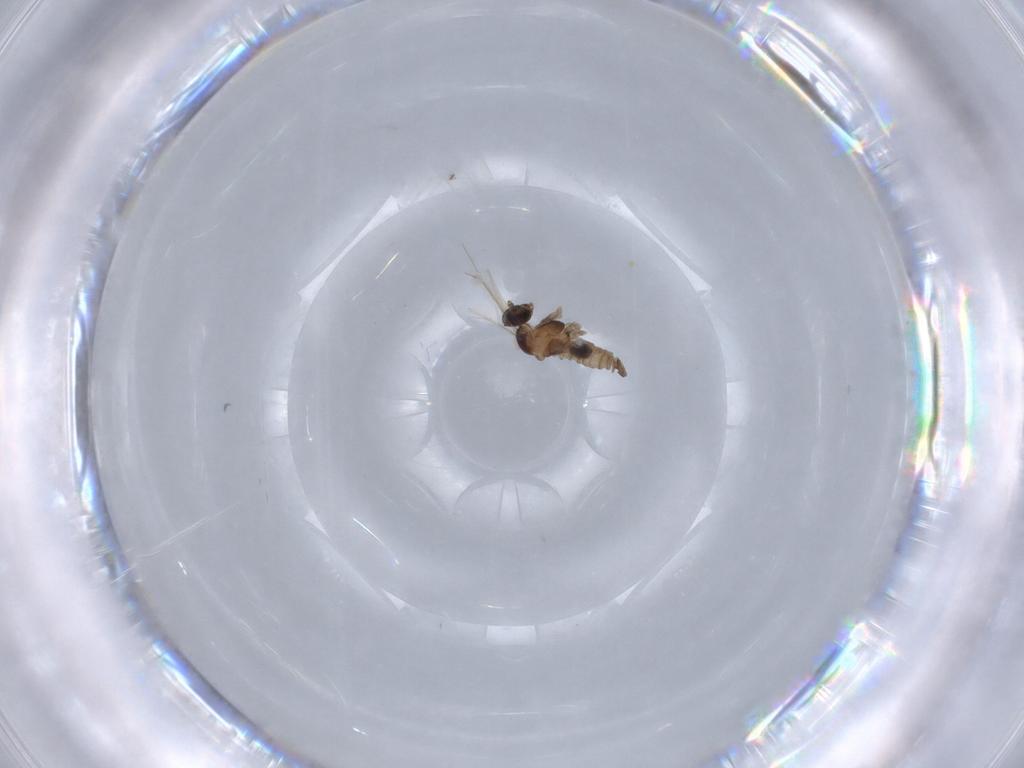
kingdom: Animalia
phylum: Arthropoda
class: Insecta
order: Diptera
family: Cecidomyiidae
